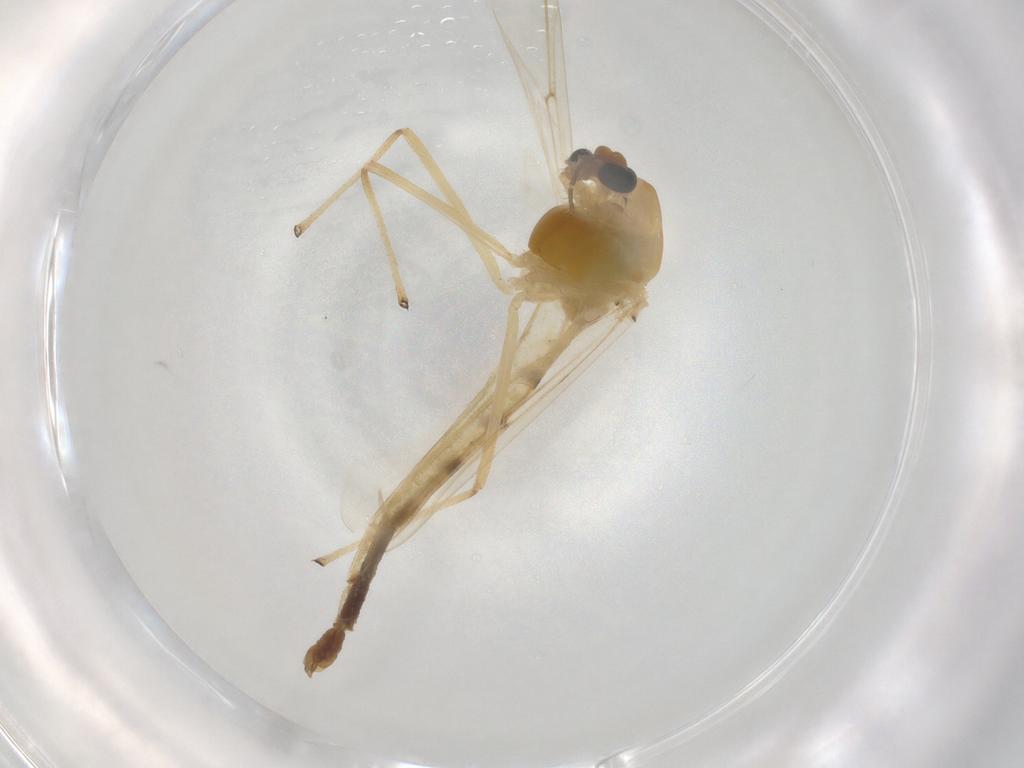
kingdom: Animalia
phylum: Arthropoda
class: Insecta
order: Diptera
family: Chironomidae
